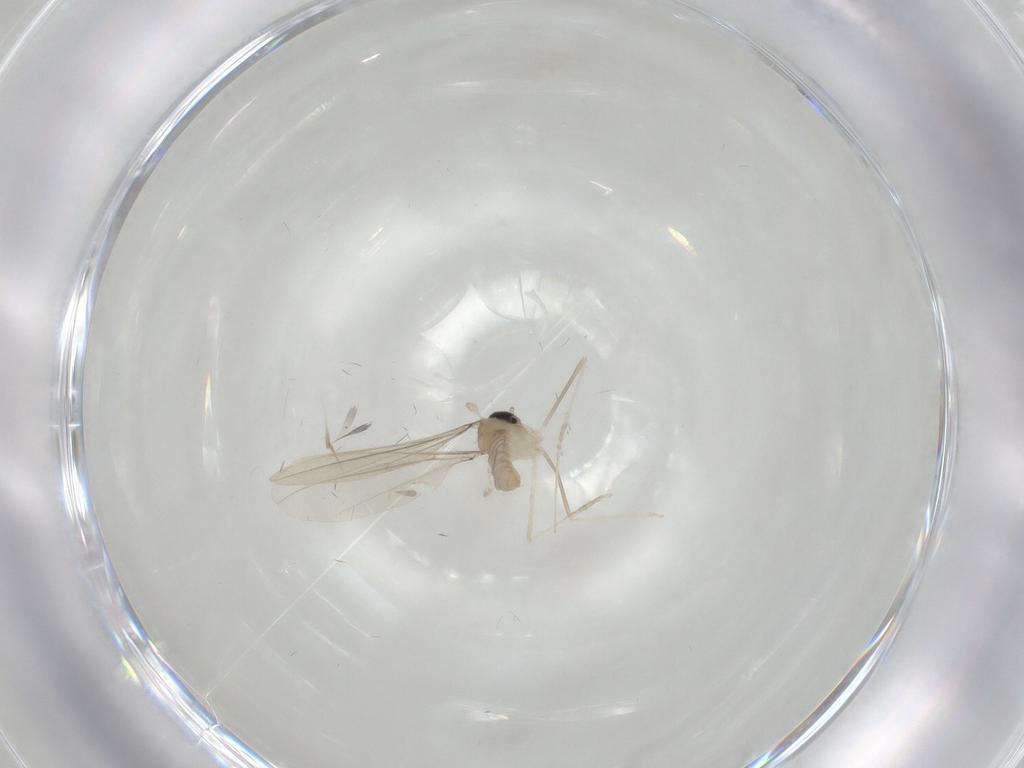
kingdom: Animalia
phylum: Arthropoda
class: Insecta
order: Diptera
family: Cecidomyiidae
